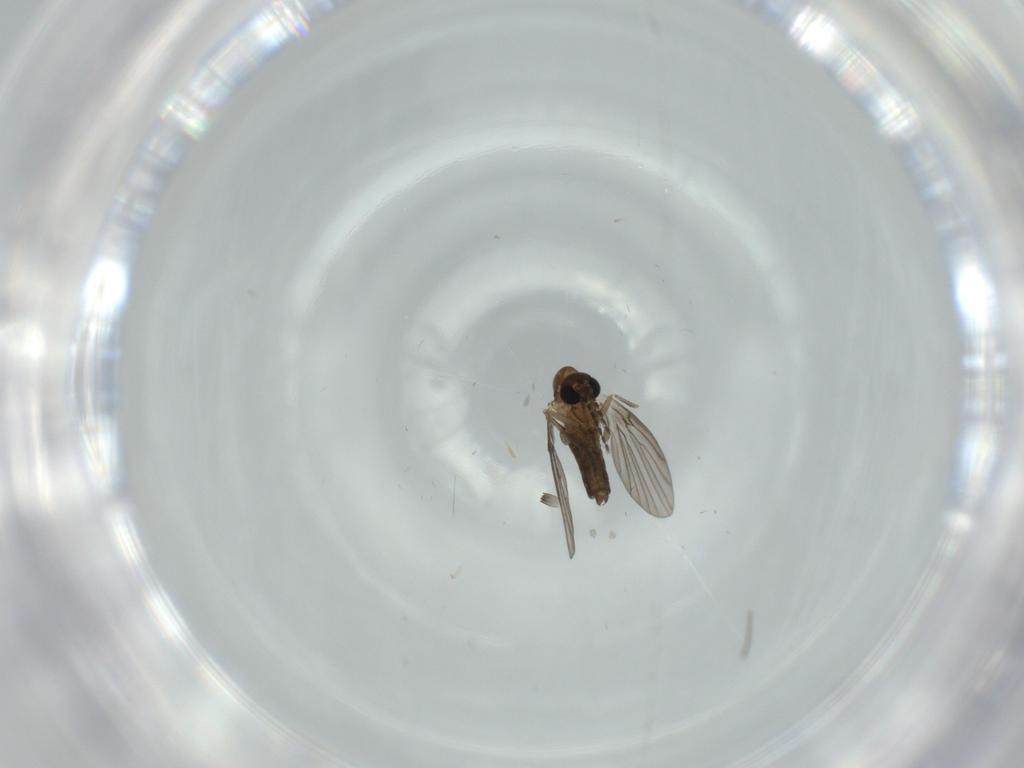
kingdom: Animalia
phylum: Arthropoda
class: Insecta
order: Diptera
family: Psychodidae
